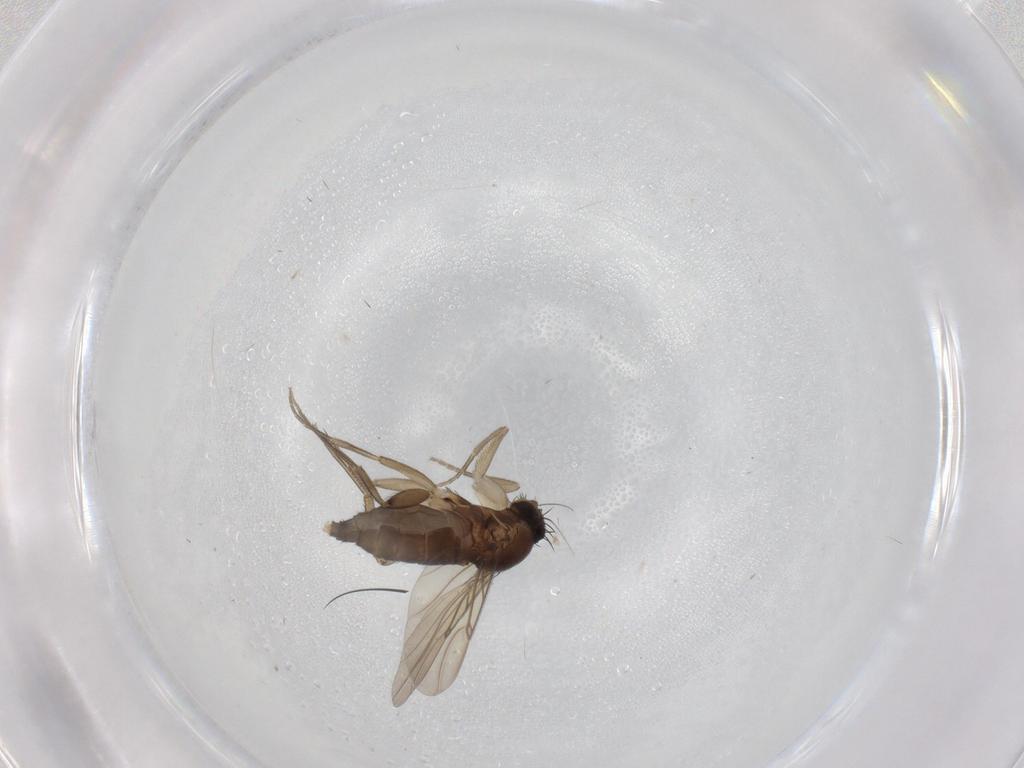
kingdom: Animalia
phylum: Arthropoda
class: Insecta
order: Diptera
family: Phoridae
